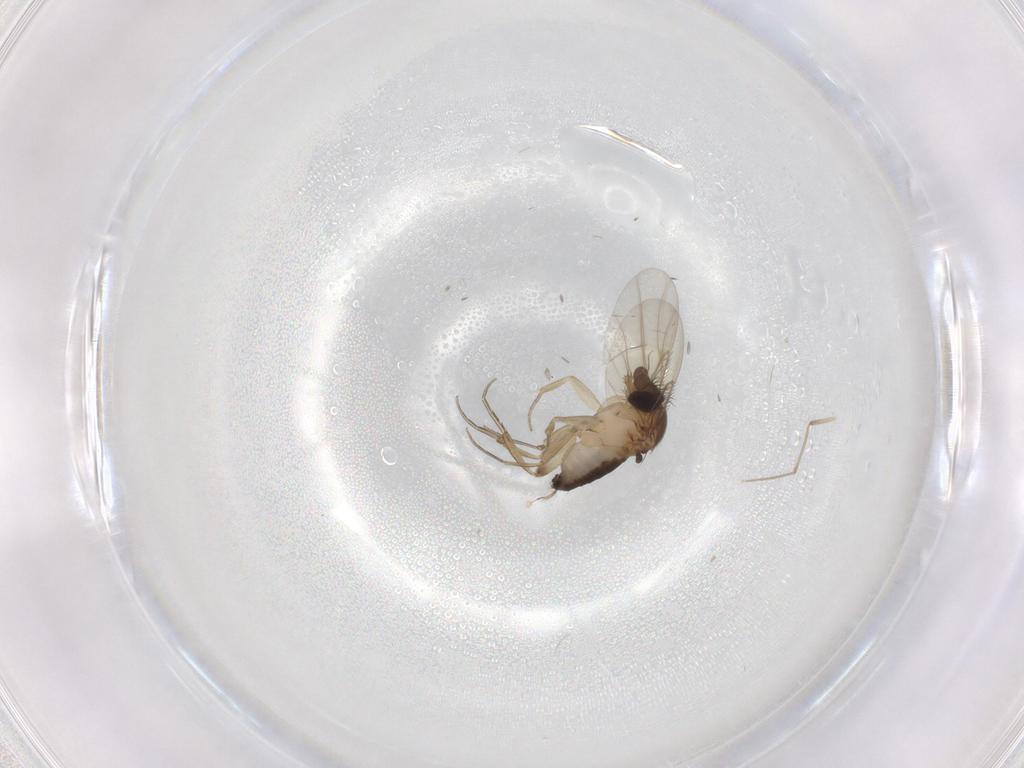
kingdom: Animalia
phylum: Arthropoda
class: Insecta
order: Diptera
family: Phoridae
